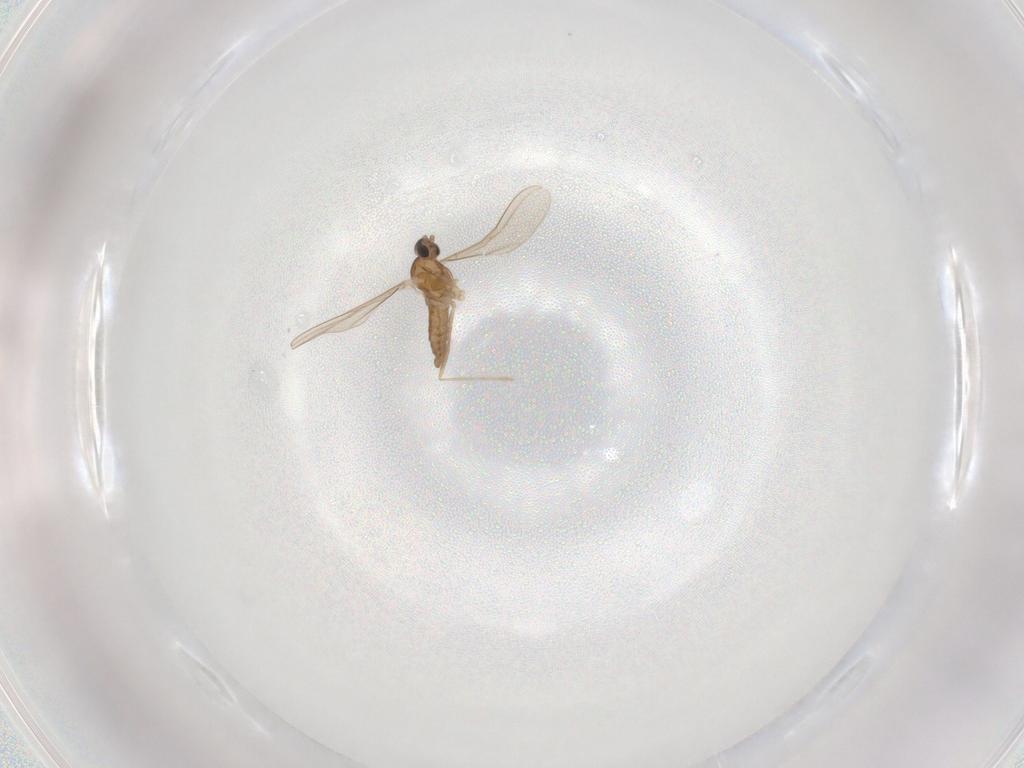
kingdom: Animalia
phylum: Arthropoda
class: Insecta
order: Diptera
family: Cecidomyiidae
